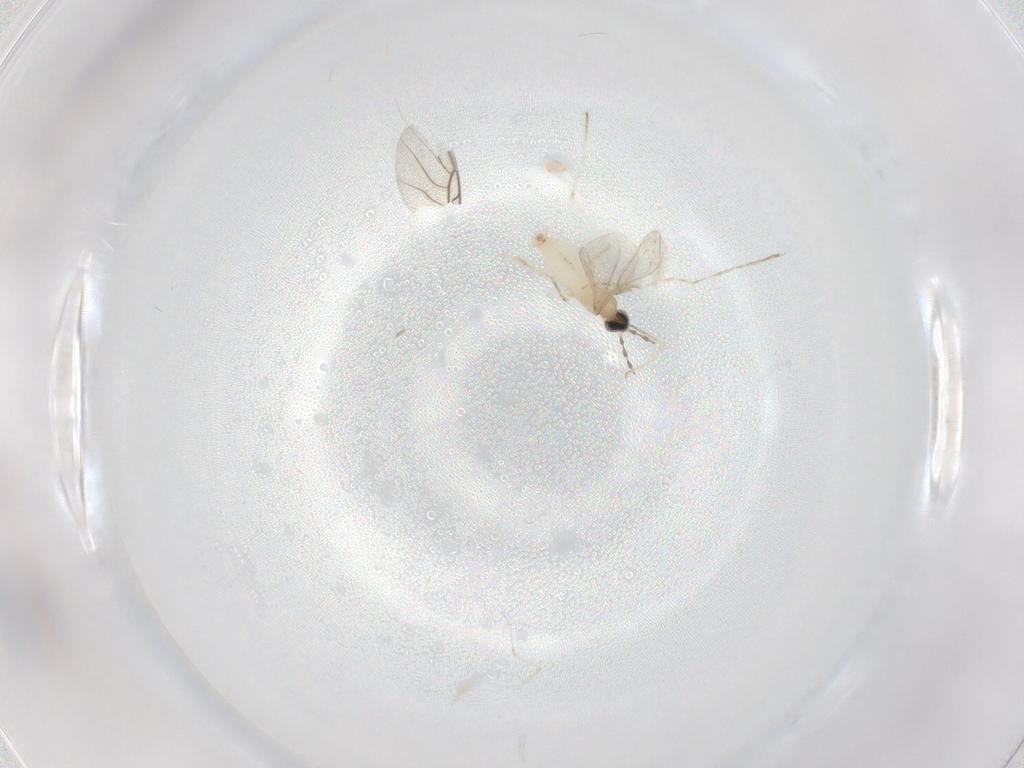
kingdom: Animalia
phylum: Arthropoda
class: Insecta
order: Diptera
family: Cecidomyiidae
